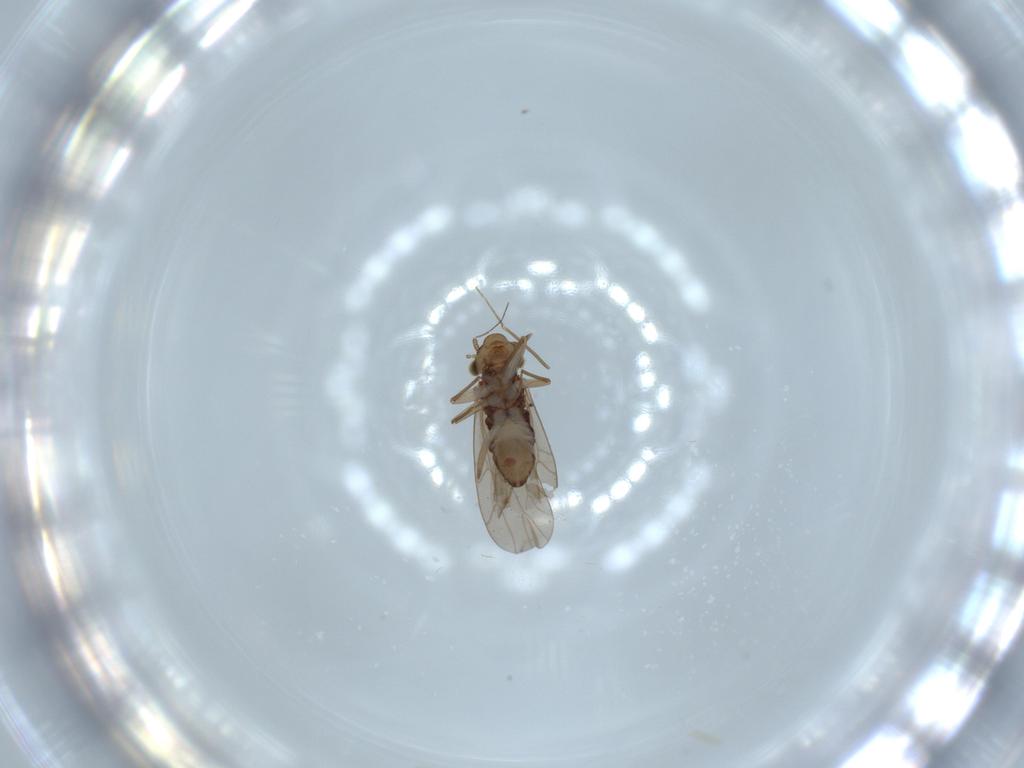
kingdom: Animalia
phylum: Arthropoda
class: Insecta
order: Psocodea
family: Lepidopsocidae
